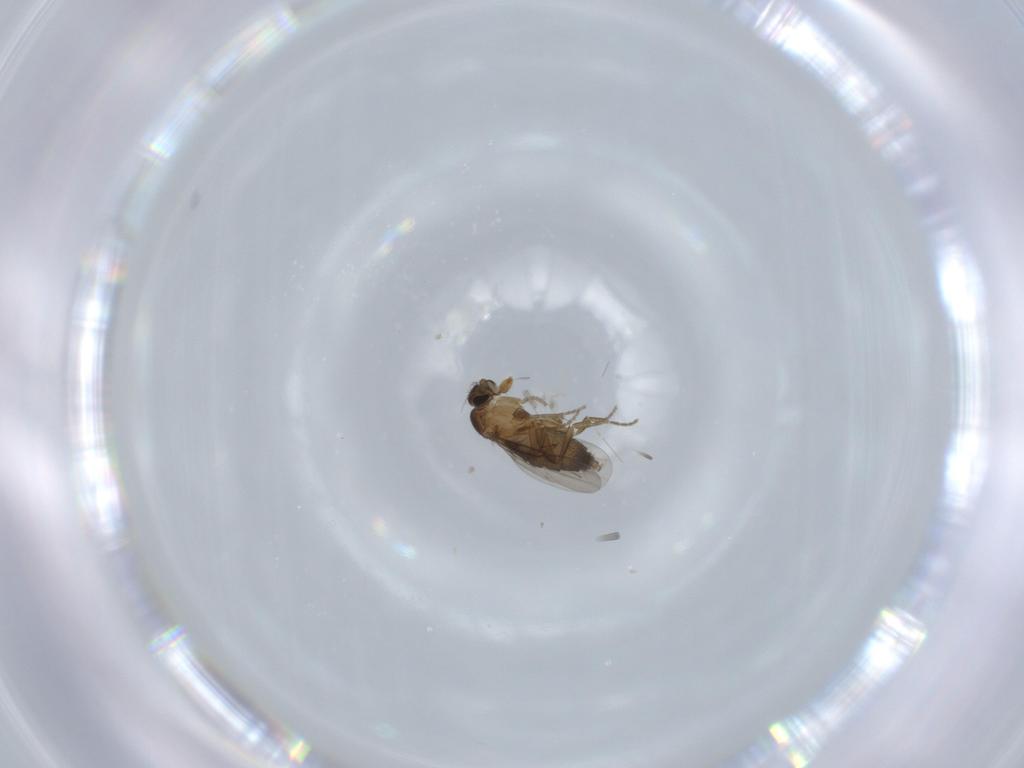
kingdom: Animalia
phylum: Arthropoda
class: Insecta
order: Diptera
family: Phoridae
